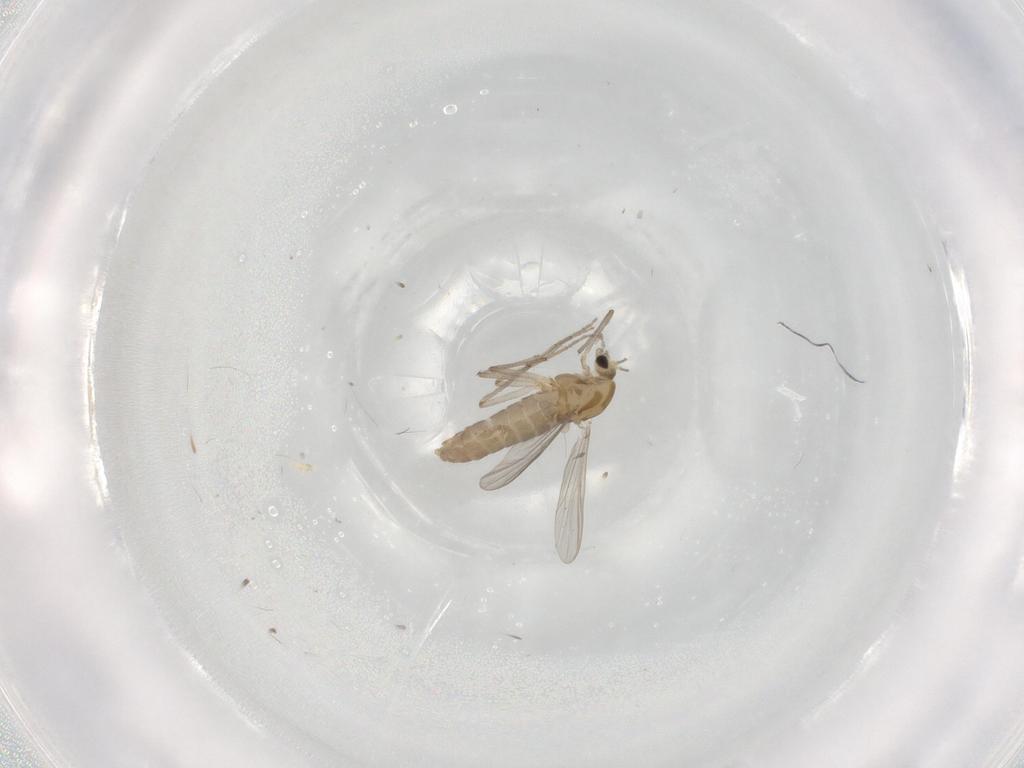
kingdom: Animalia
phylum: Arthropoda
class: Insecta
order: Diptera
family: Chironomidae
